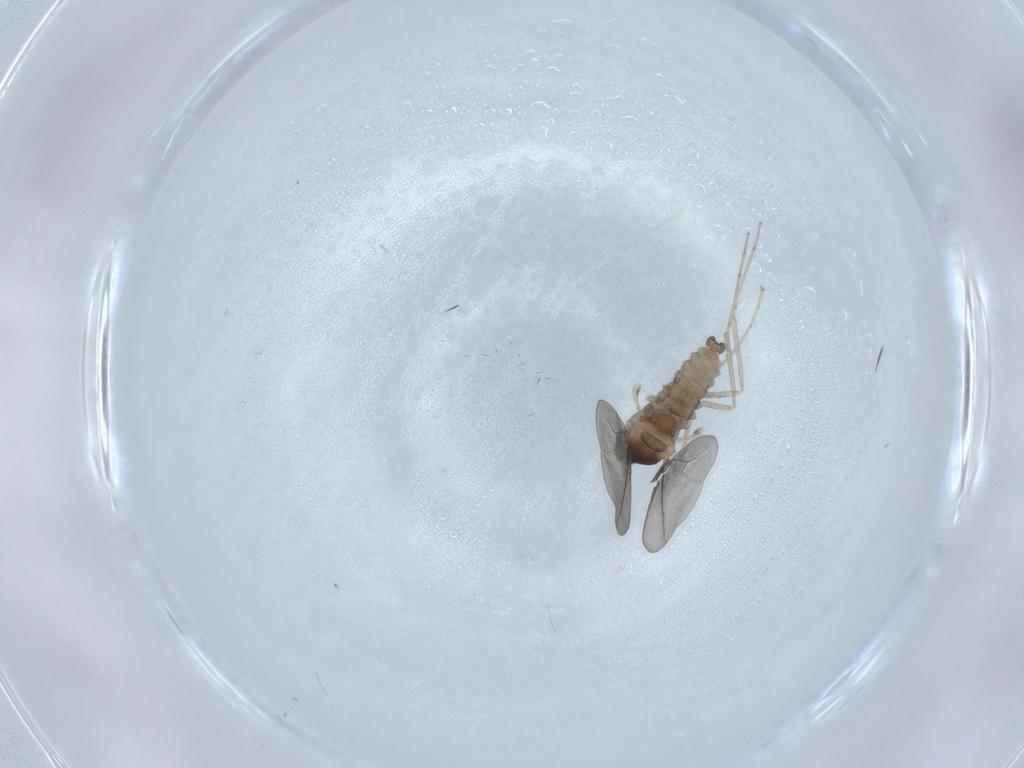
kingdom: Animalia
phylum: Arthropoda
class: Insecta
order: Diptera
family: Cecidomyiidae
